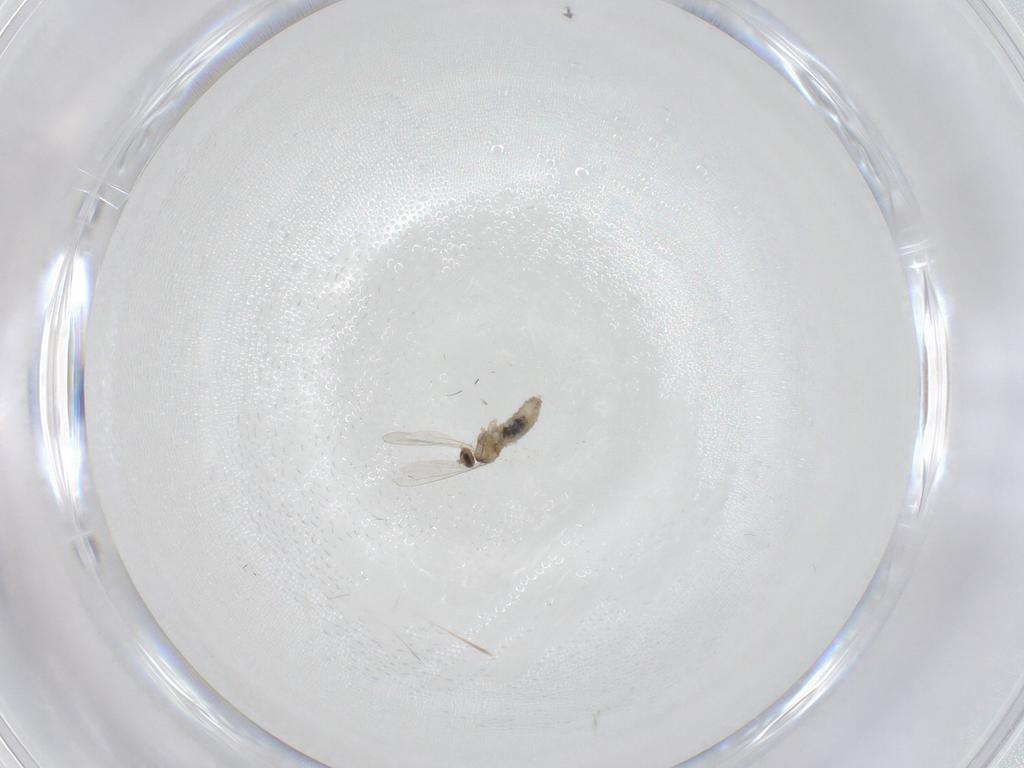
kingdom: Animalia
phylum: Arthropoda
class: Insecta
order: Diptera
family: Cecidomyiidae
